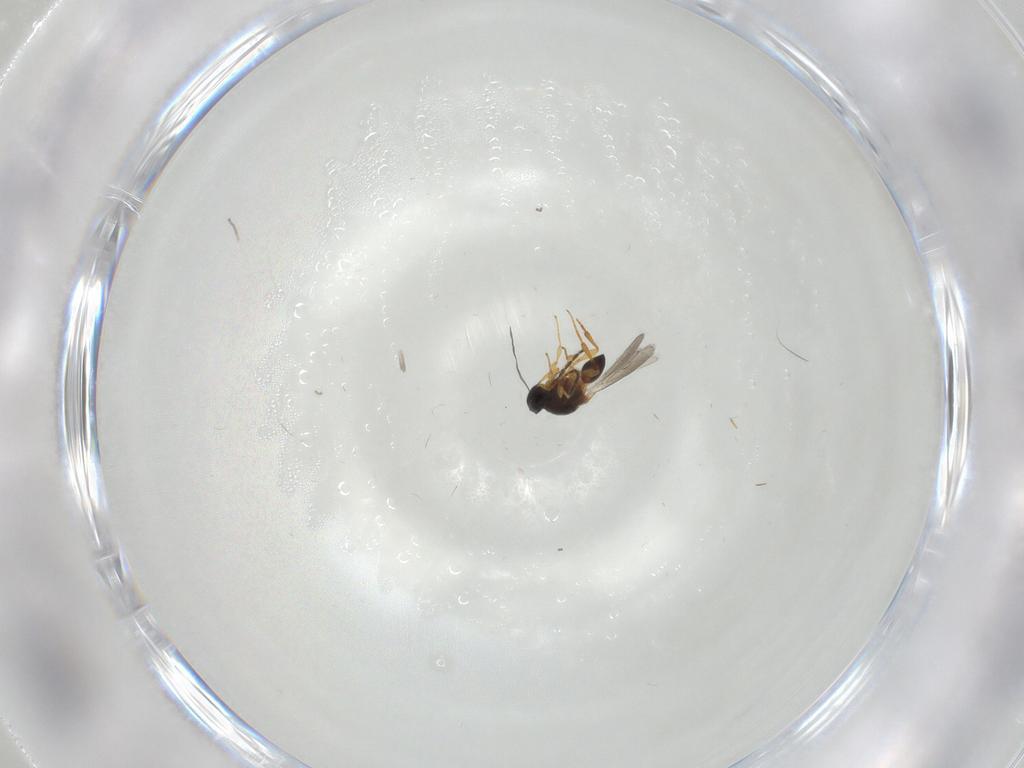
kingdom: Animalia
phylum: Arthropoda
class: Insecta
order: Hymenoptera
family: Platygastridae
